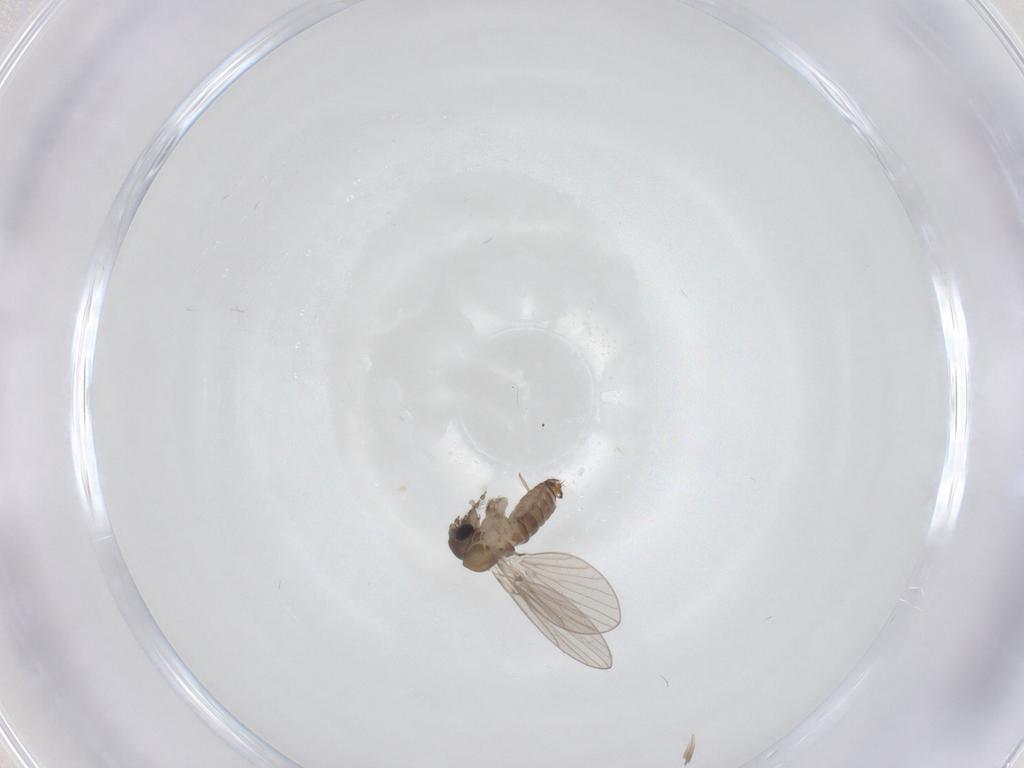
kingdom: Animalia
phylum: Arthropoda
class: Insecta
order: Diptera
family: Psychodidae
